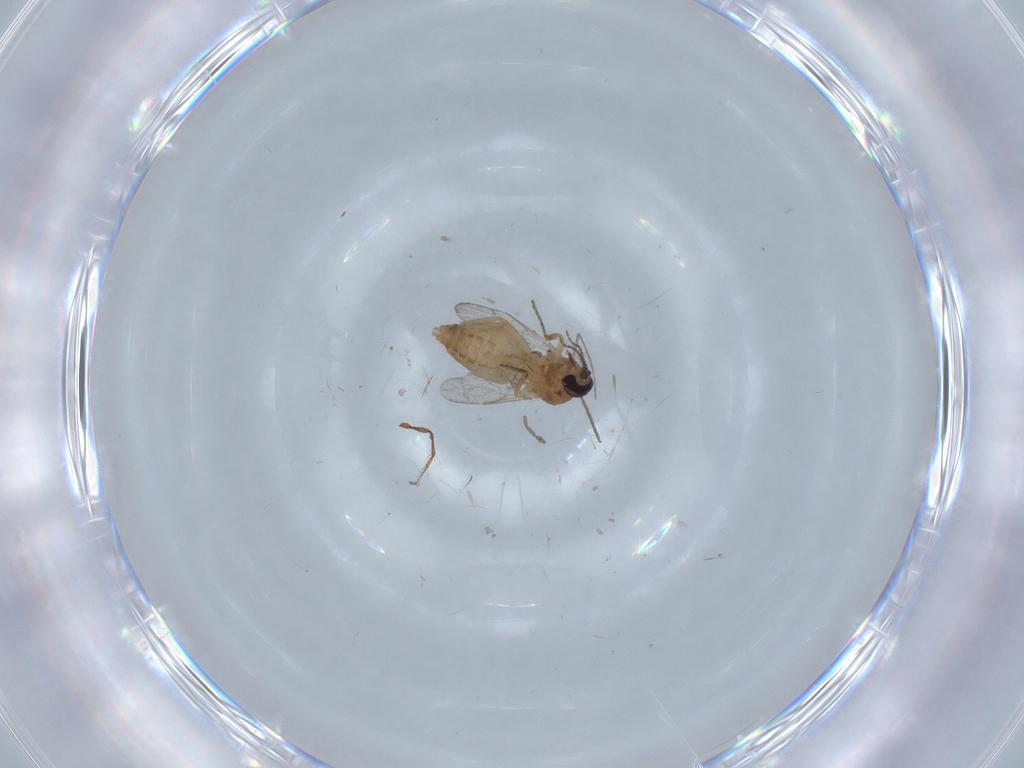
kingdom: Animalia
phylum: Arthropoda
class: Insecta
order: Diptera
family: Ceratopogonidae
